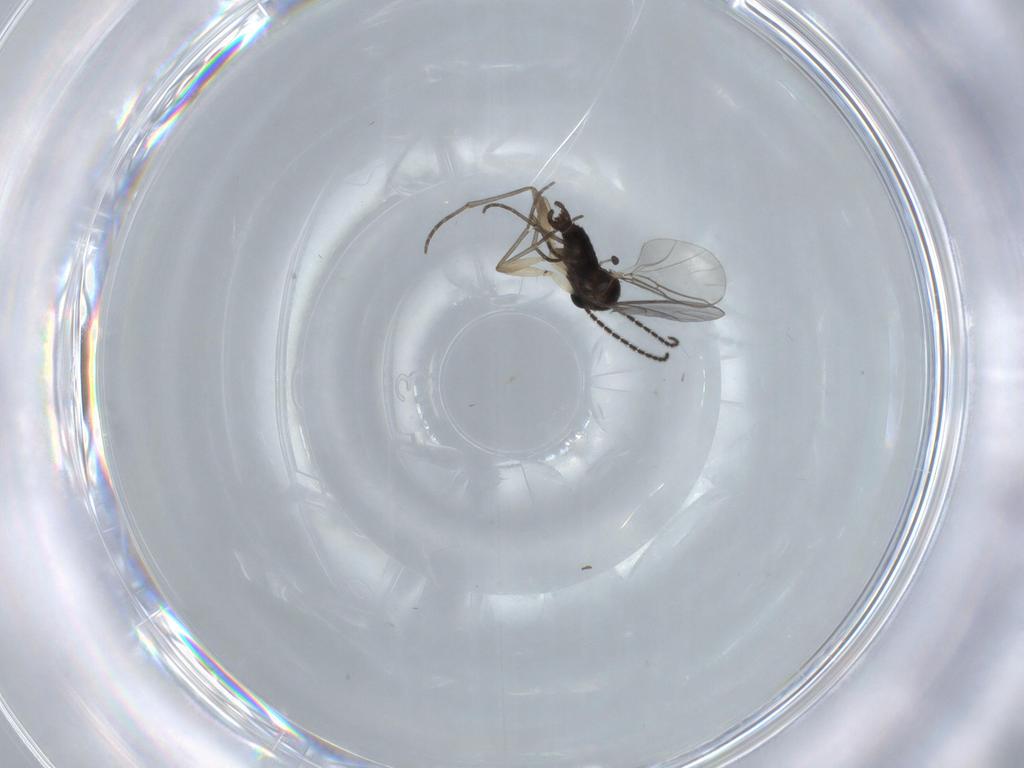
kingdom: Animalia
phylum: Arthropoda
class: Insecta
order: Diptera
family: Sciaridae
